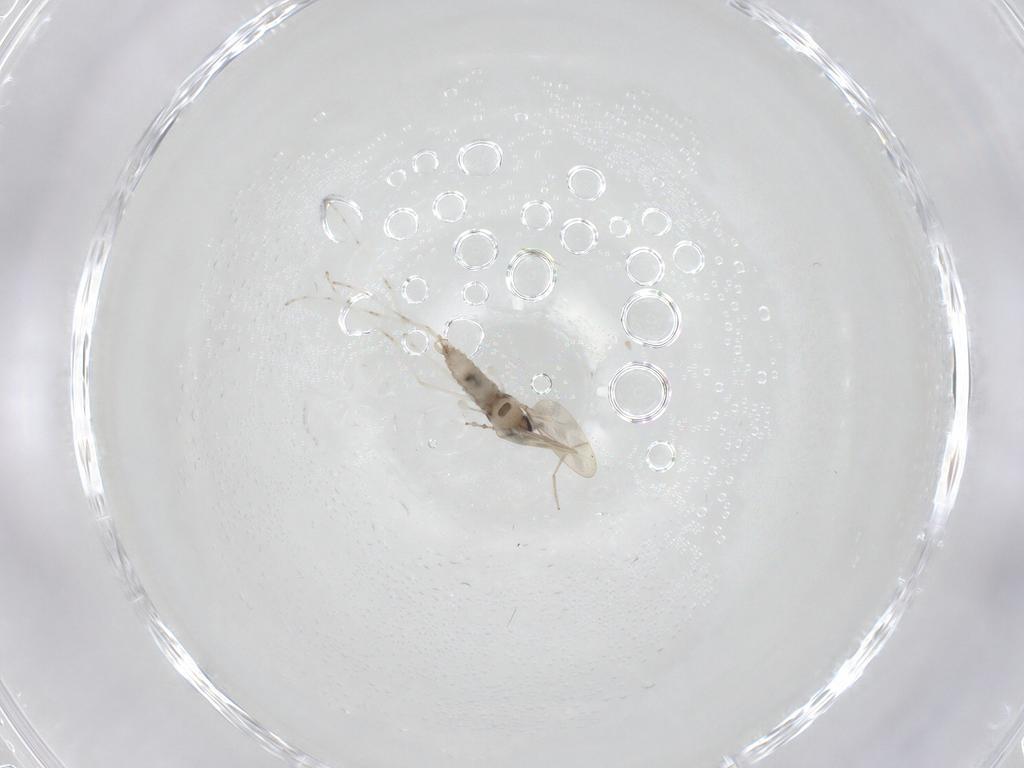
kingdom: Animalia
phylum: Arthropoda
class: Insecta
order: Diptera
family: Cecidomyiidae
